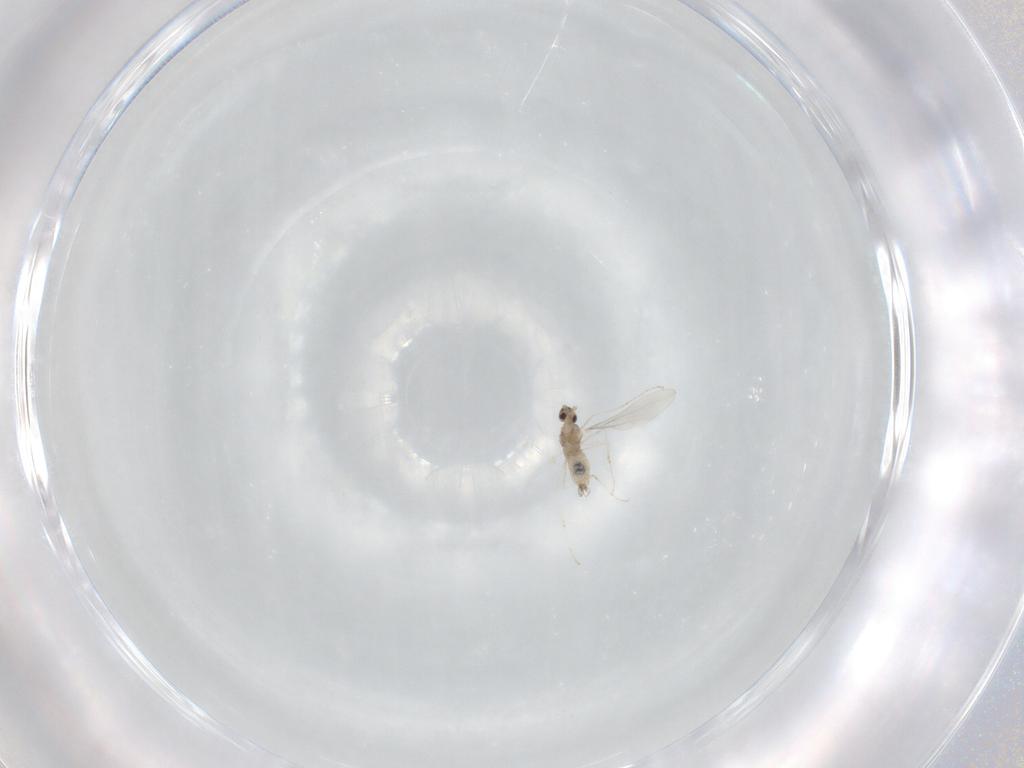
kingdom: Animalia
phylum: Arthropoda
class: Insecta
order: Diptera
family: Cecidomyiidae
